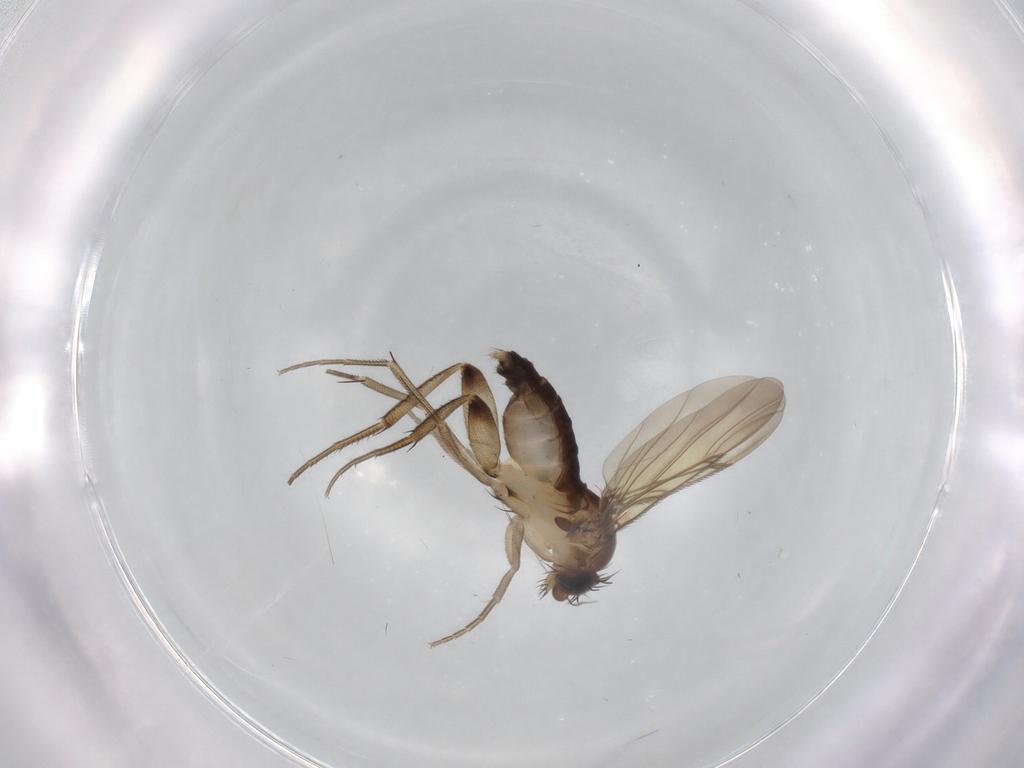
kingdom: Animalia
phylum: Arthropoda
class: Insecta
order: Diptera
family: Phoridae
